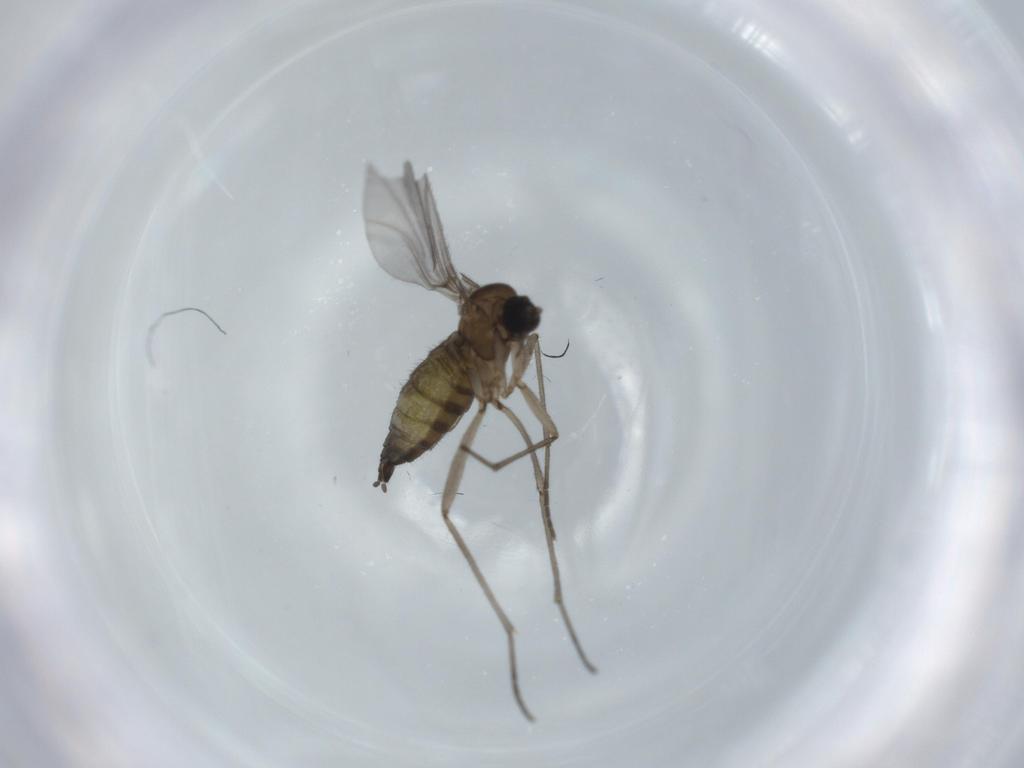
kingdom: Animalia
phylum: Arthropoda
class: Insecta
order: Diptera
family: Sciaridae
